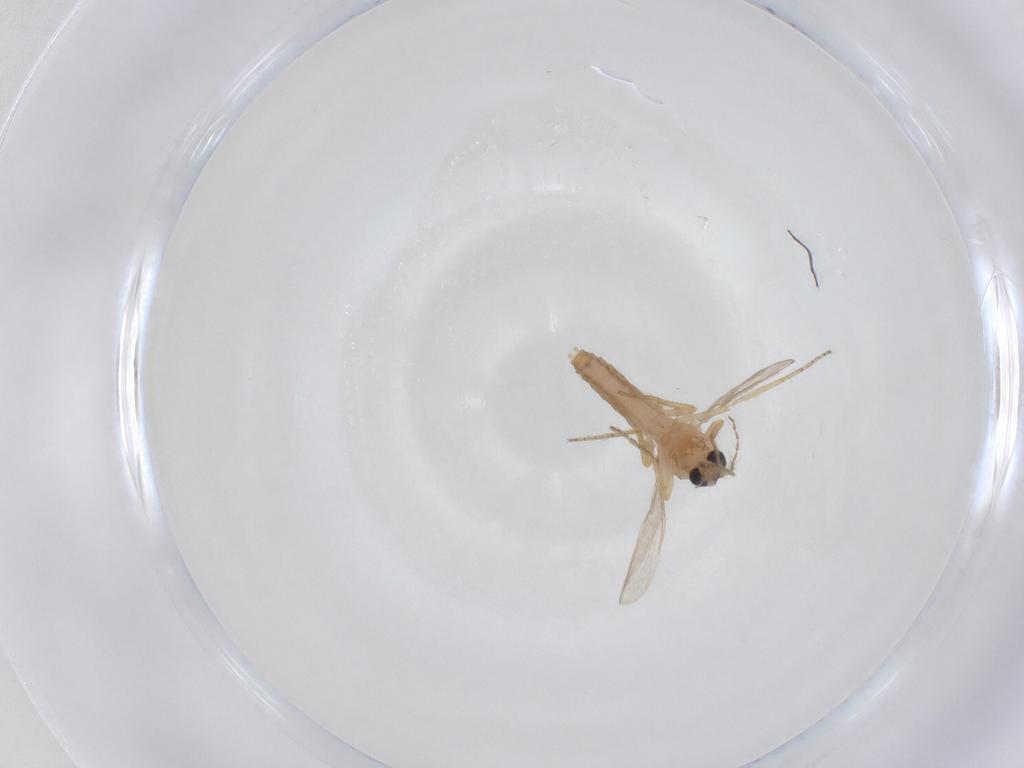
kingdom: Animalia
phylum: Arthropoda
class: Insecta
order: Diptera
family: Ceratopogonidae
